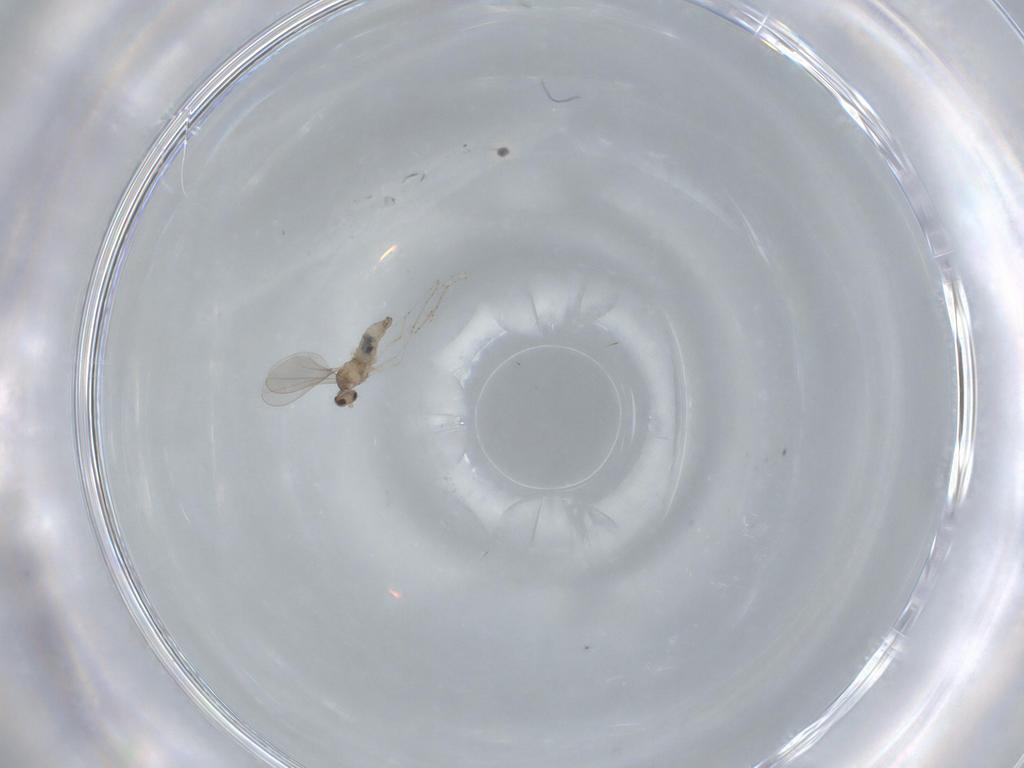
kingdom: Animalia
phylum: Arthropoda
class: Insecta
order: Diptera
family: Cecidomyiidae
